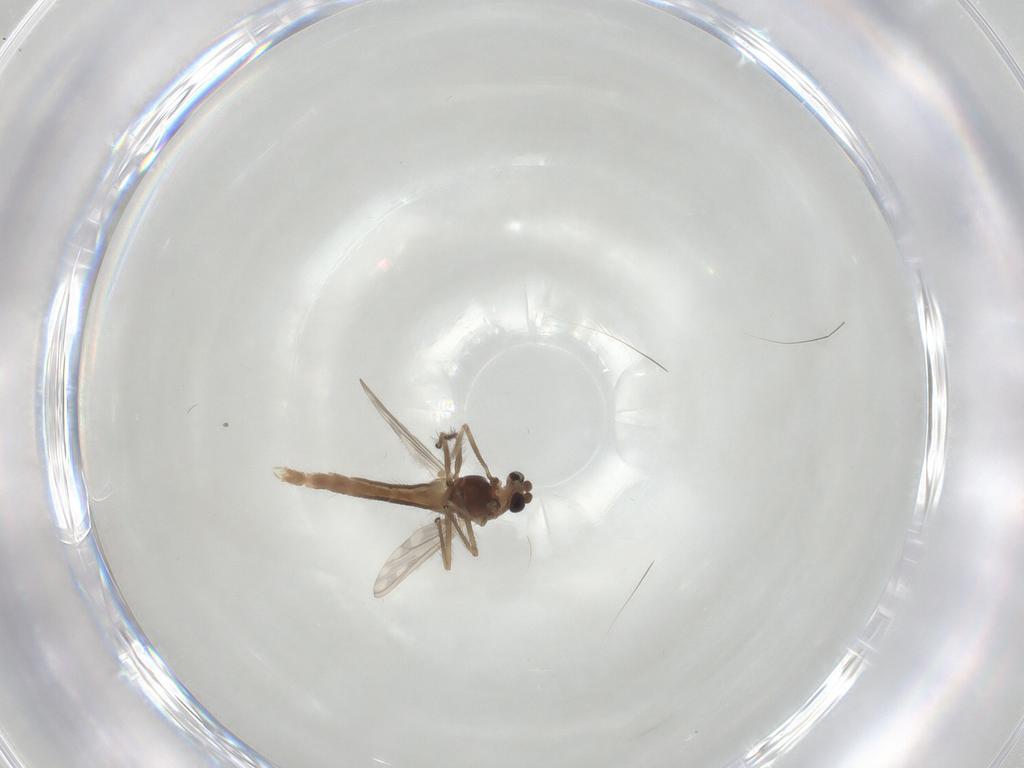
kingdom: Animalia
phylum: Arthropoda
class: Insecta
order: Diptera
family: Chironomidae
